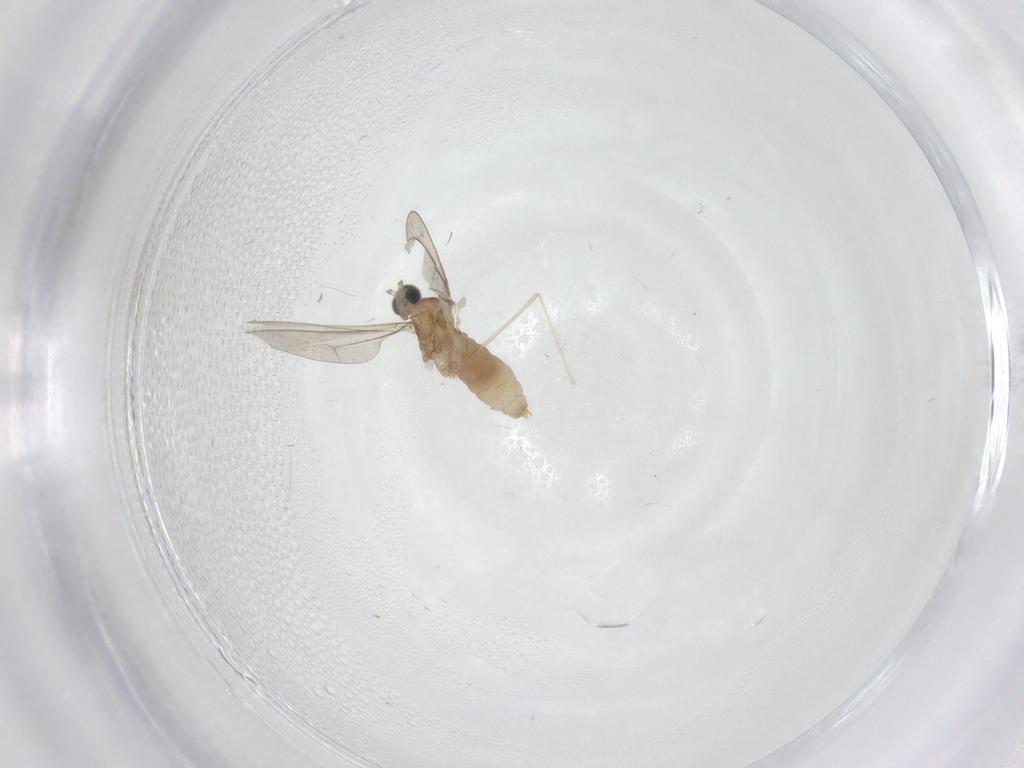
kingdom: Animalia
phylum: Arthropoda
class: Insecta
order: Diptera
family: Cecidomyiidae
